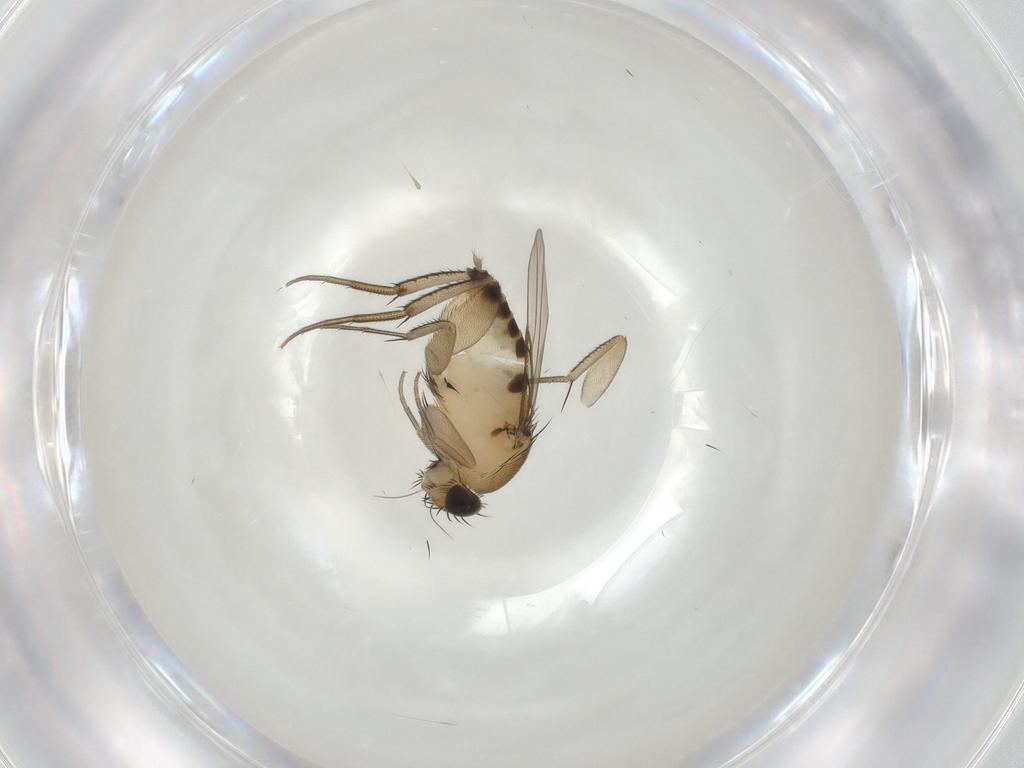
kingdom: Animalia
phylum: Arthropoda
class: Insecta
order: Diptera
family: Phoridae
